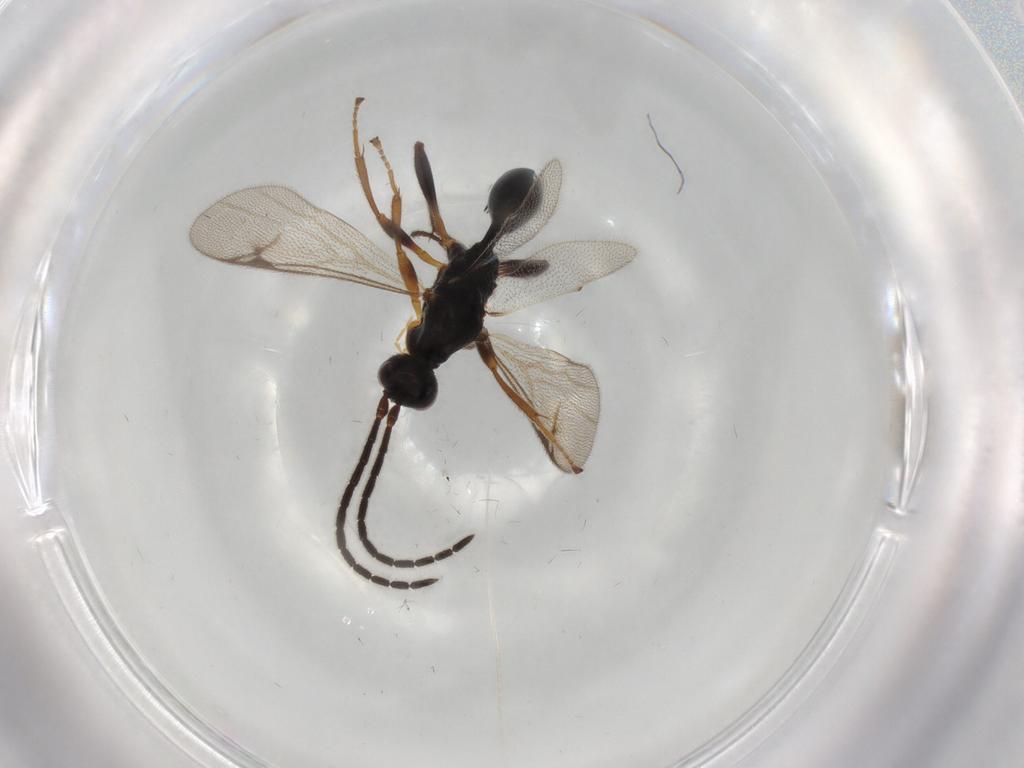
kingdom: Animalia
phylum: Arthropoda
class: Insecta
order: Hymenoptera
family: Proctotrupidae
